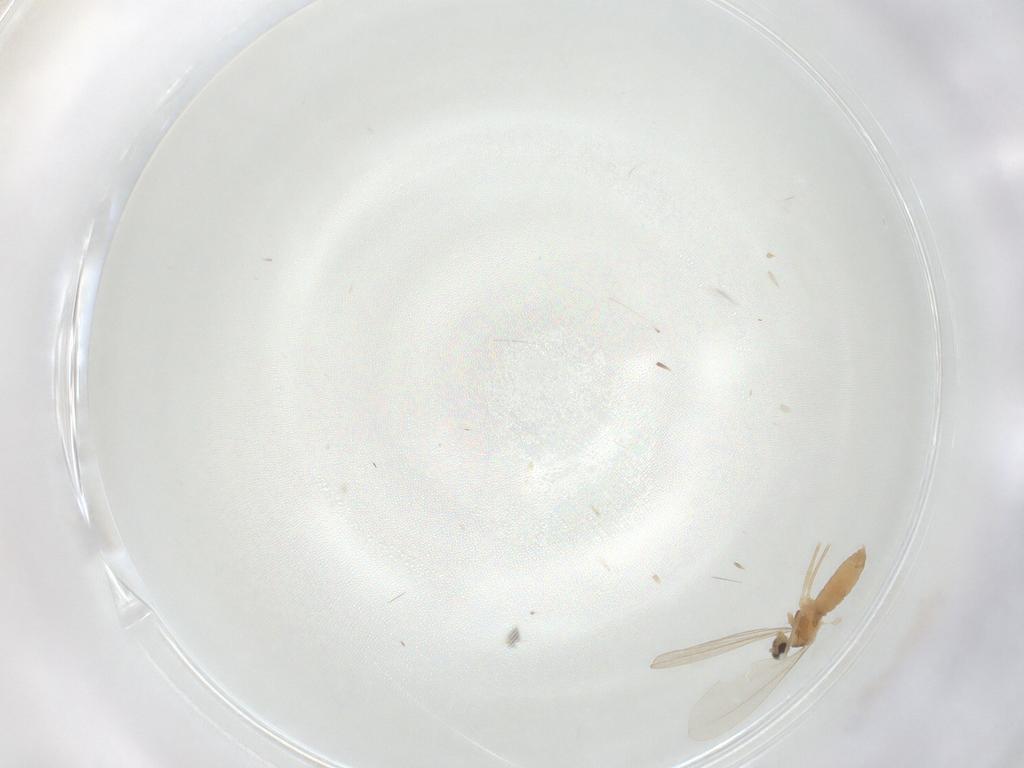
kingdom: Animalia
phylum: Arthropoda
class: Insecta
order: Diptera
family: Cecidomyiidae
